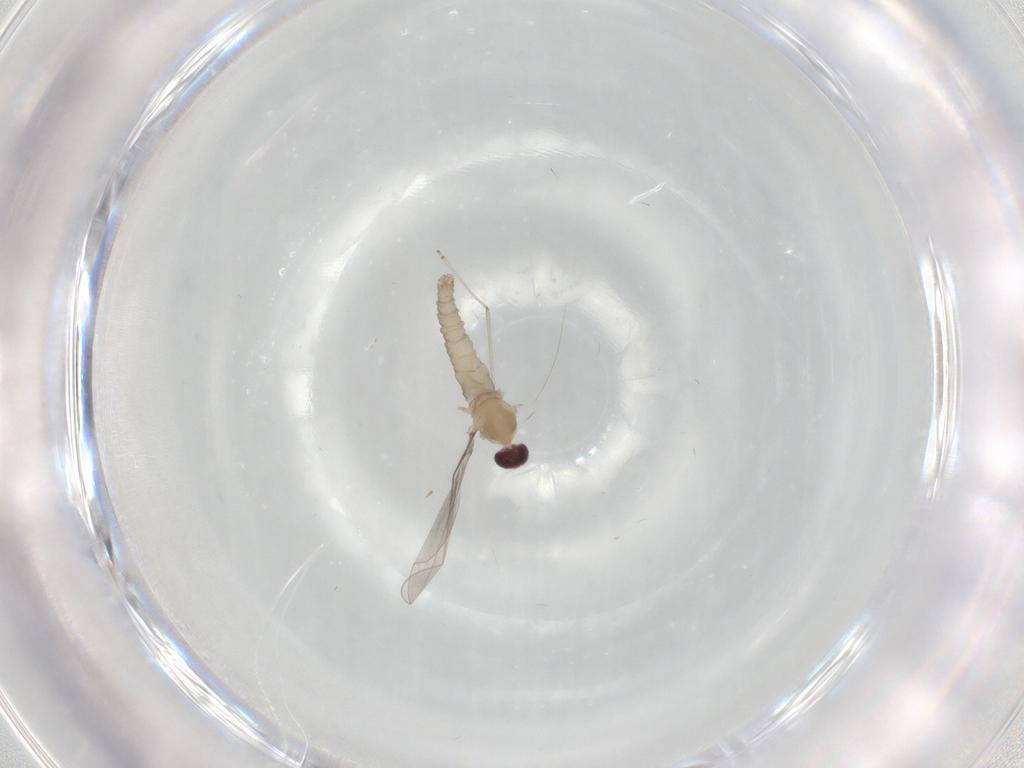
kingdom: Animalia
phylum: Arthropoda
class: Insecta
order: Diptera
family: Cecidomyiidae
